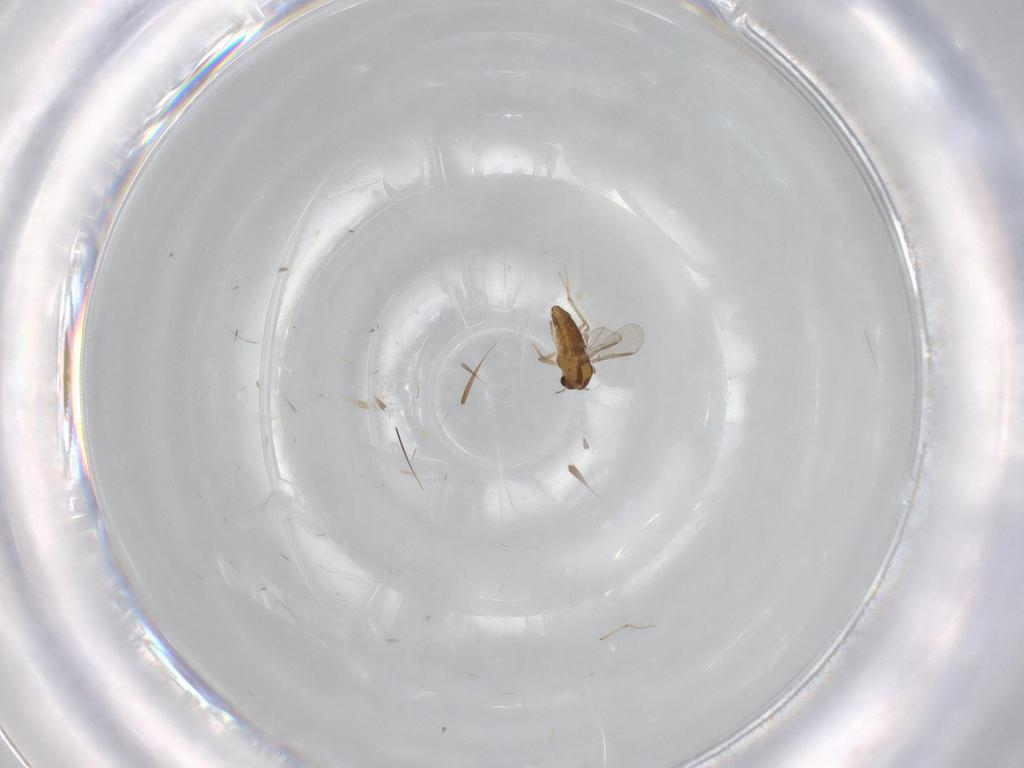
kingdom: Animalia
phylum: Arthropoda
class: Insecta
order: Diptera
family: Chironomidae
